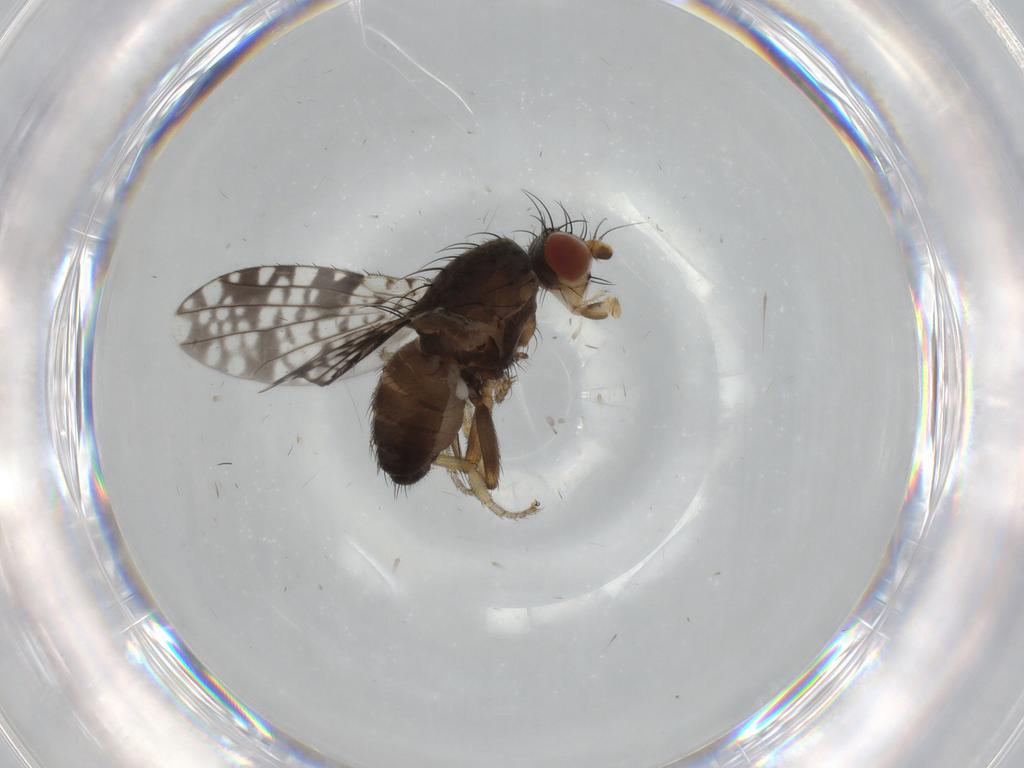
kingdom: Animalia
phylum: Arthropoda
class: Insecta
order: Diptera
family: Tephritidae
